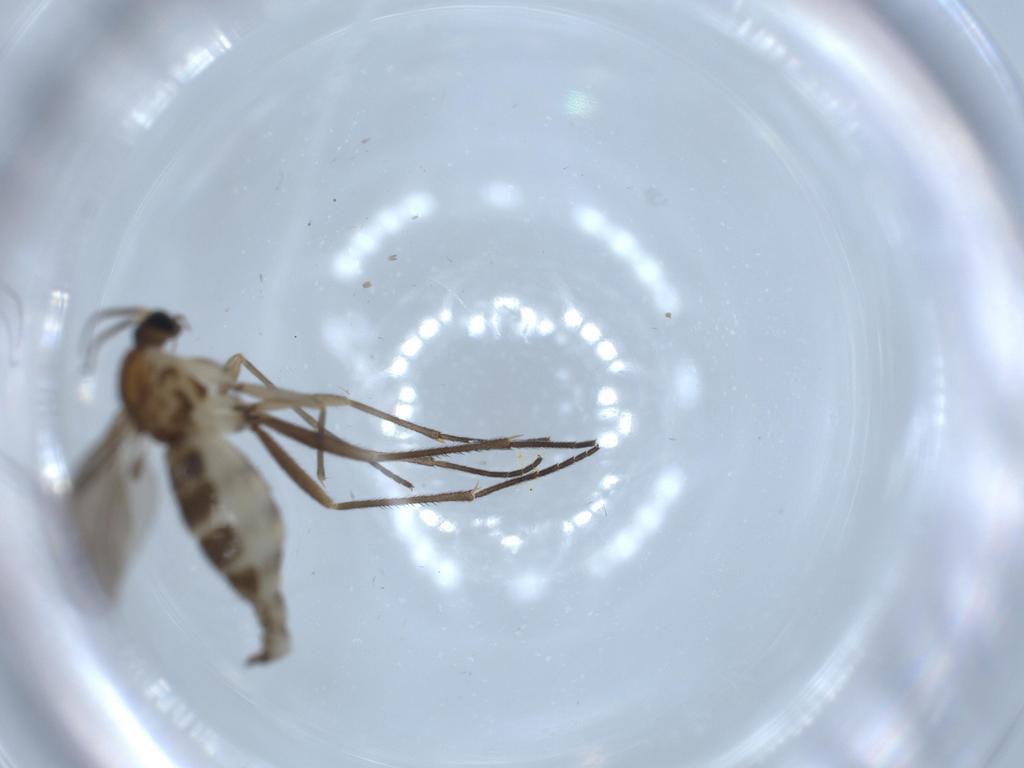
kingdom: Animalia
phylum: Arthropoda
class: Insecta
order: Diptera
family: Sciaridae
